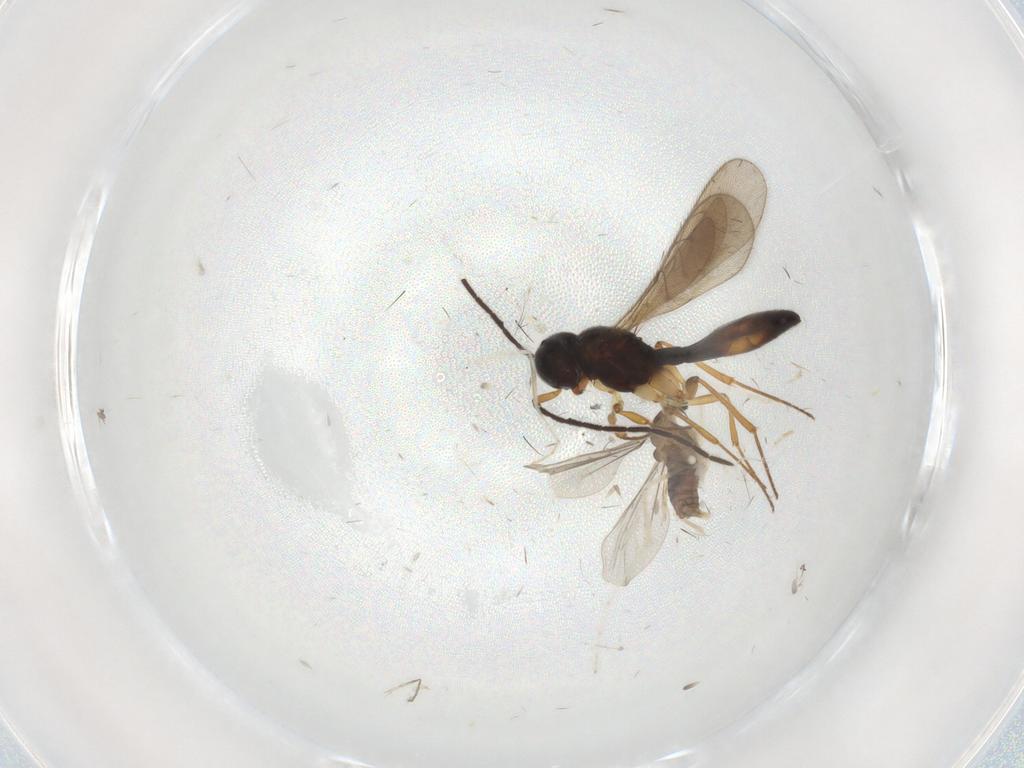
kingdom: Animalia
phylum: Arthropoda
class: Insecta
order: Diptera
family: Cecidomyiidae
